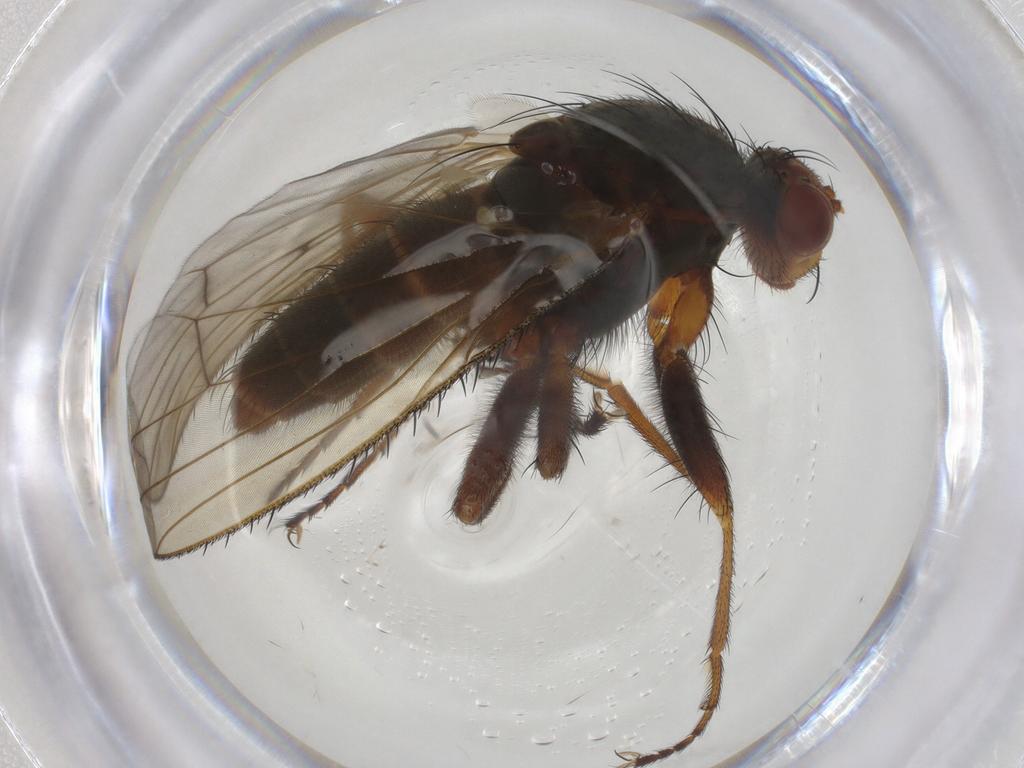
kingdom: Animalia
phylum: Arthropoda
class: Insecta
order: Diptera
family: Heleomyzidae
